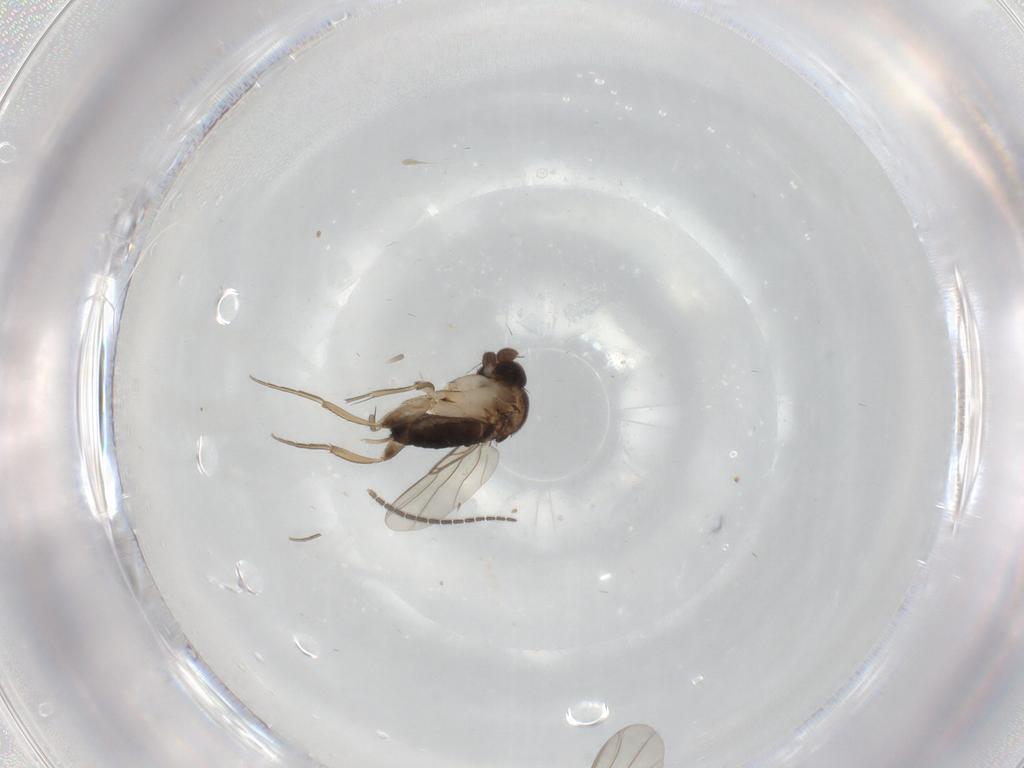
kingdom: Animalia
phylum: Arthropoda
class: Insecta
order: Diptera
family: Sciaridae
